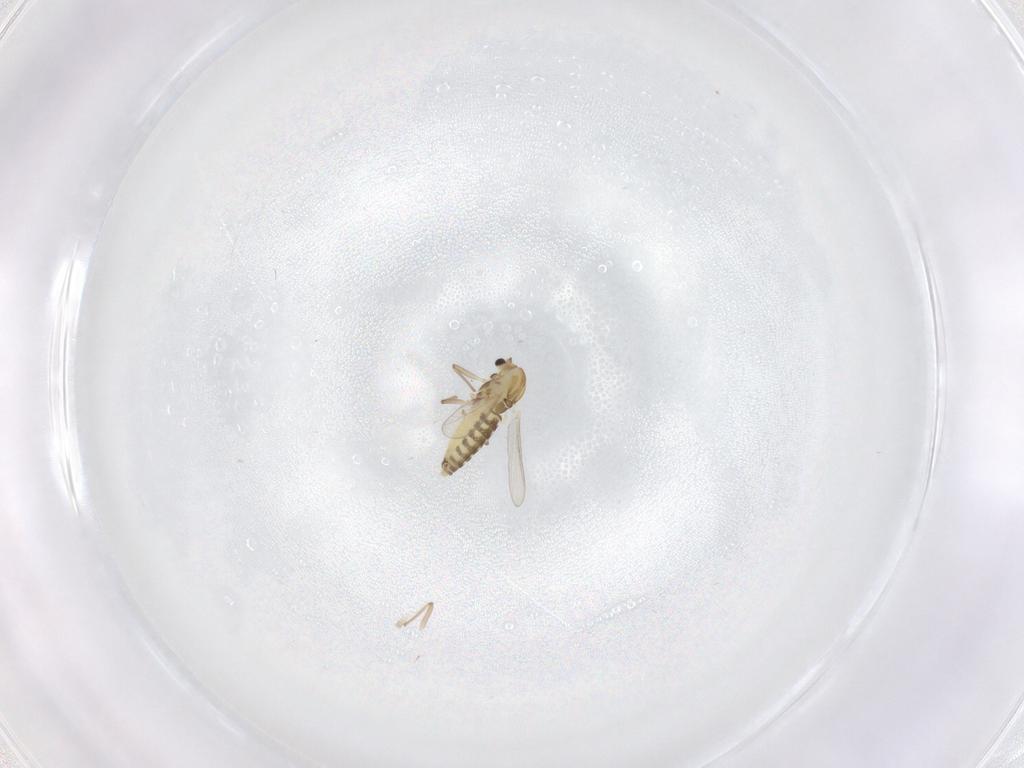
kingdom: Animalia
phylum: Arthropoda
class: Insecta
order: Diptera
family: Chironomidae
